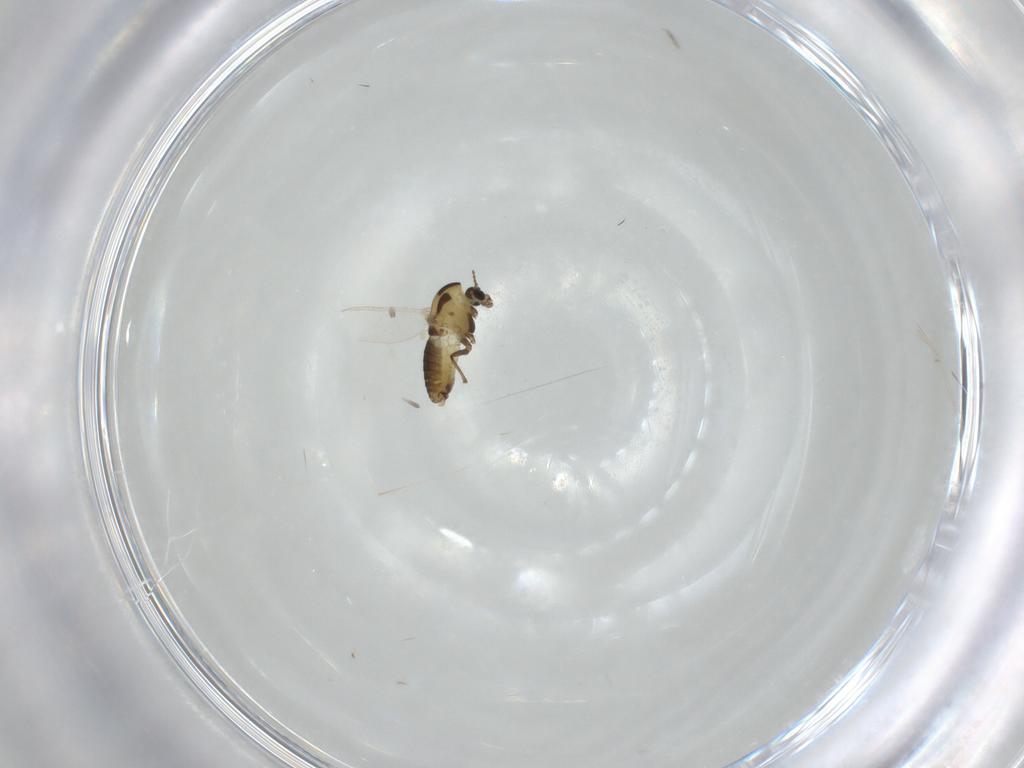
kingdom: Animalia
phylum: Arthropoda
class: Insecta
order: Diptera
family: Chironomidae
